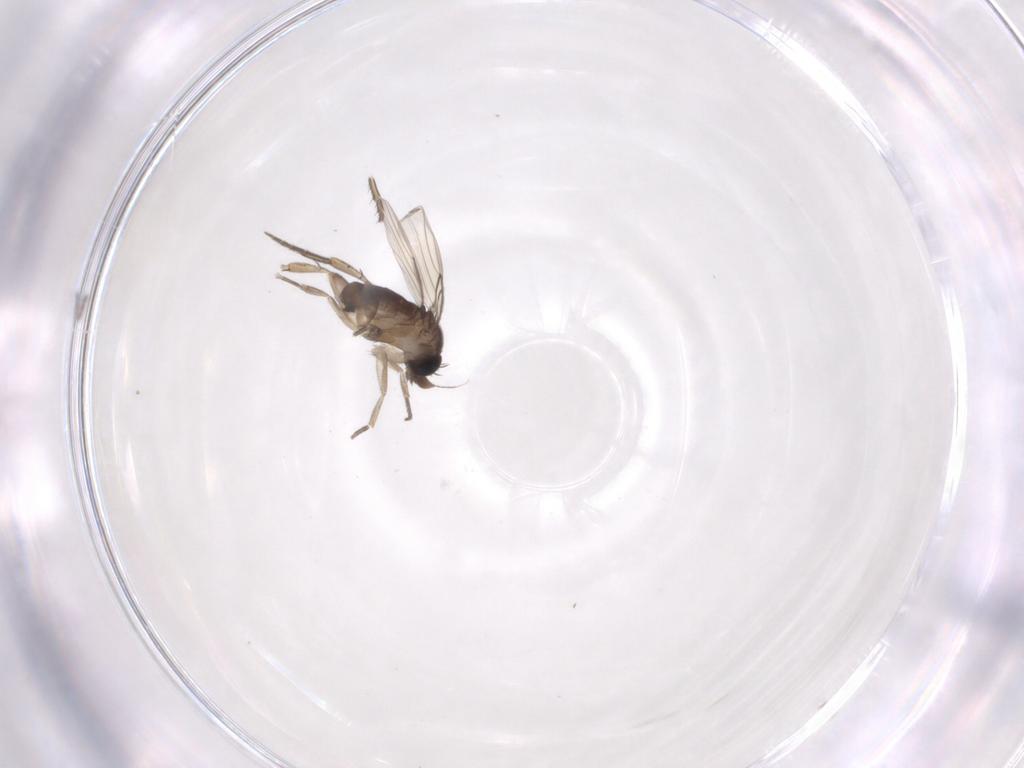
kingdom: Animalia
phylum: Arthropoda
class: Insecta
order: Diptera
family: Phoridae
